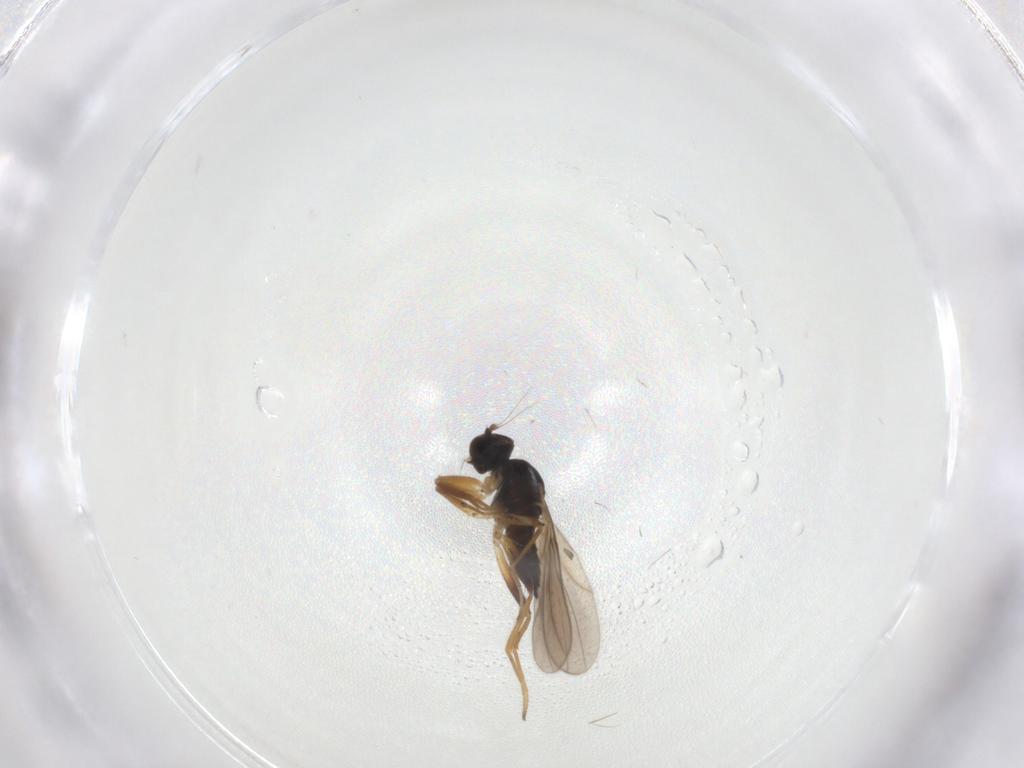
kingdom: Animalia
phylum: Arthropoda
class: Insecta
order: Diptera
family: Hybotidae
